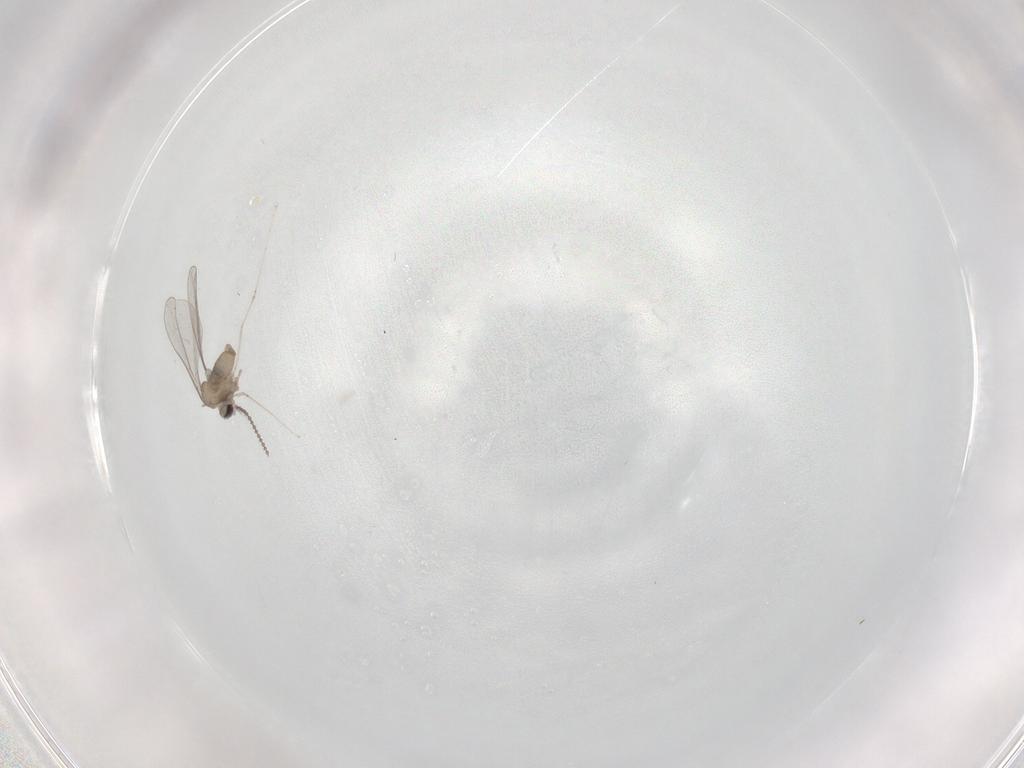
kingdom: Animalia
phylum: Arthropoda
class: Insecta
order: Diptera
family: Cecidomyiidae
